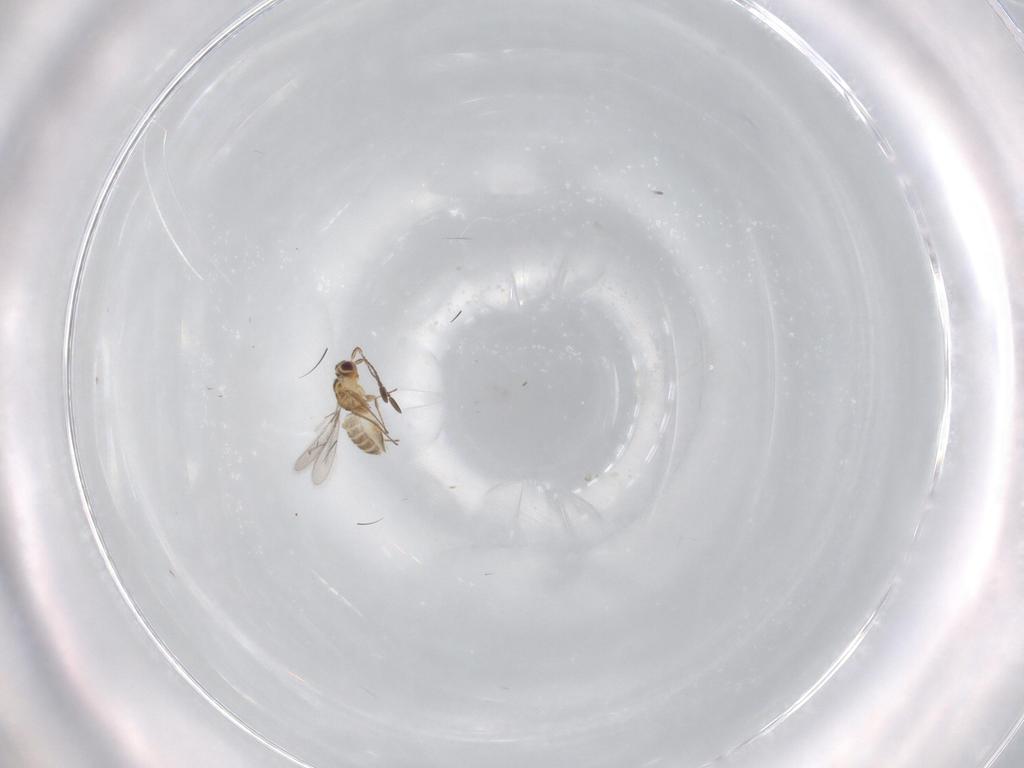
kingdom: Animalia
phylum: Arthropoda
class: Insecta
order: Hymenoptera
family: Mymaridae
